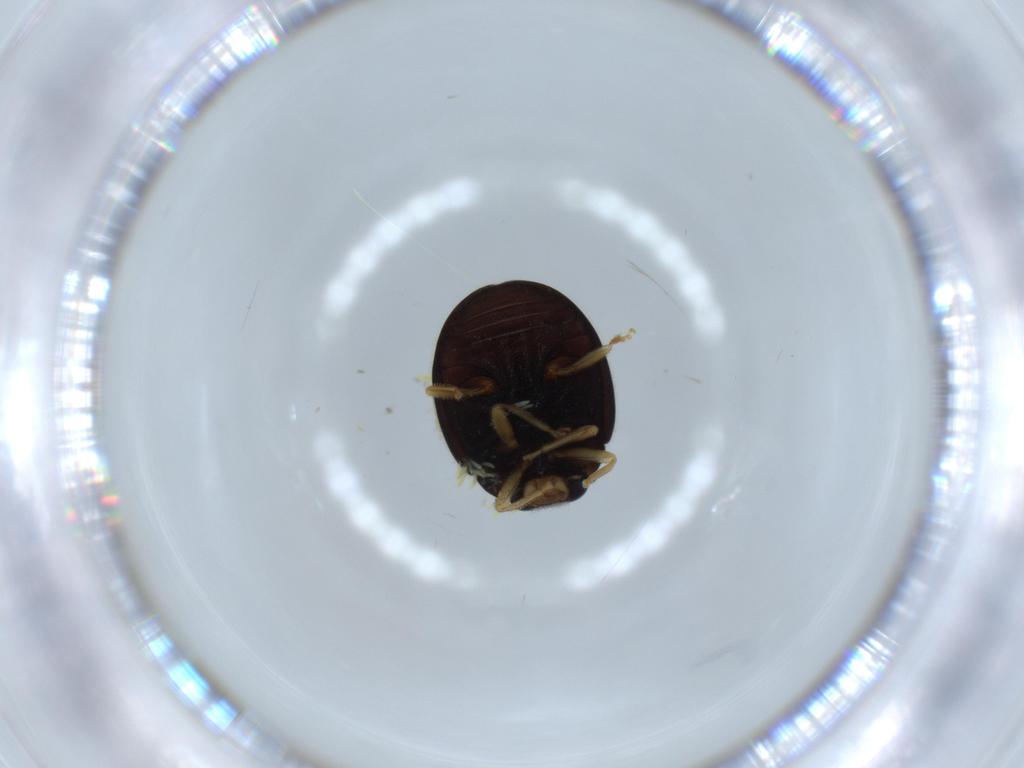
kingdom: Animalia
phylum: Arthropoda
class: Insecta
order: Coleoptera
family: Coccinellidae
